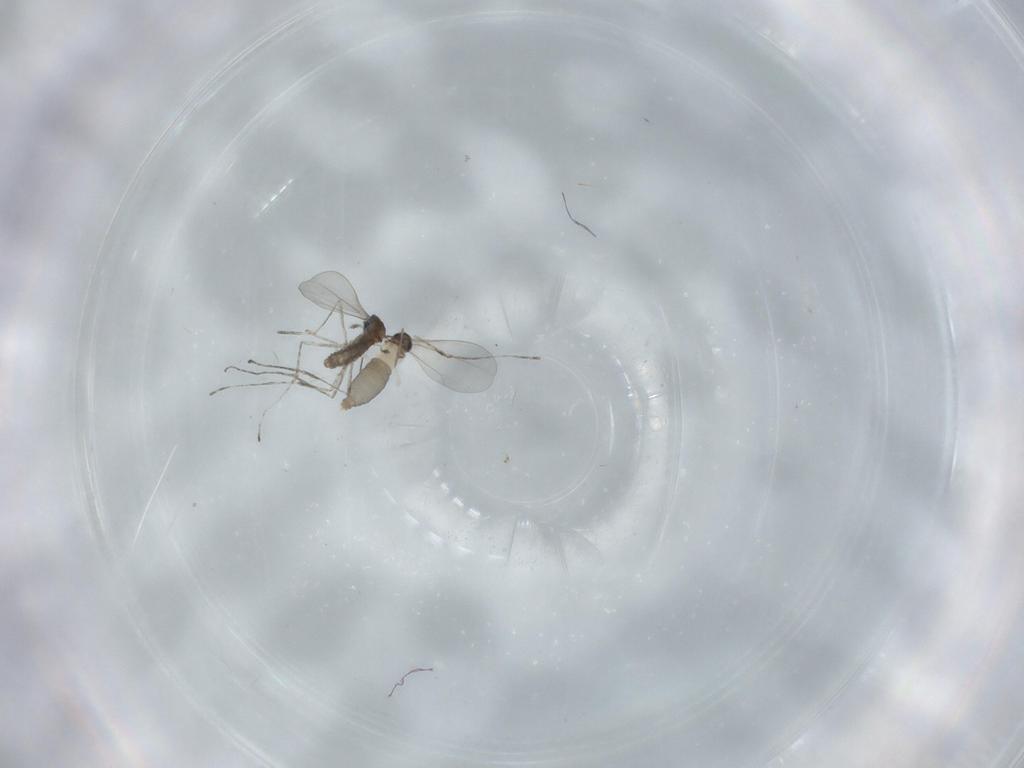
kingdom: Animalia
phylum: Arthropoda
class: Insecta
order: Diptera
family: Cecidomyiidae
